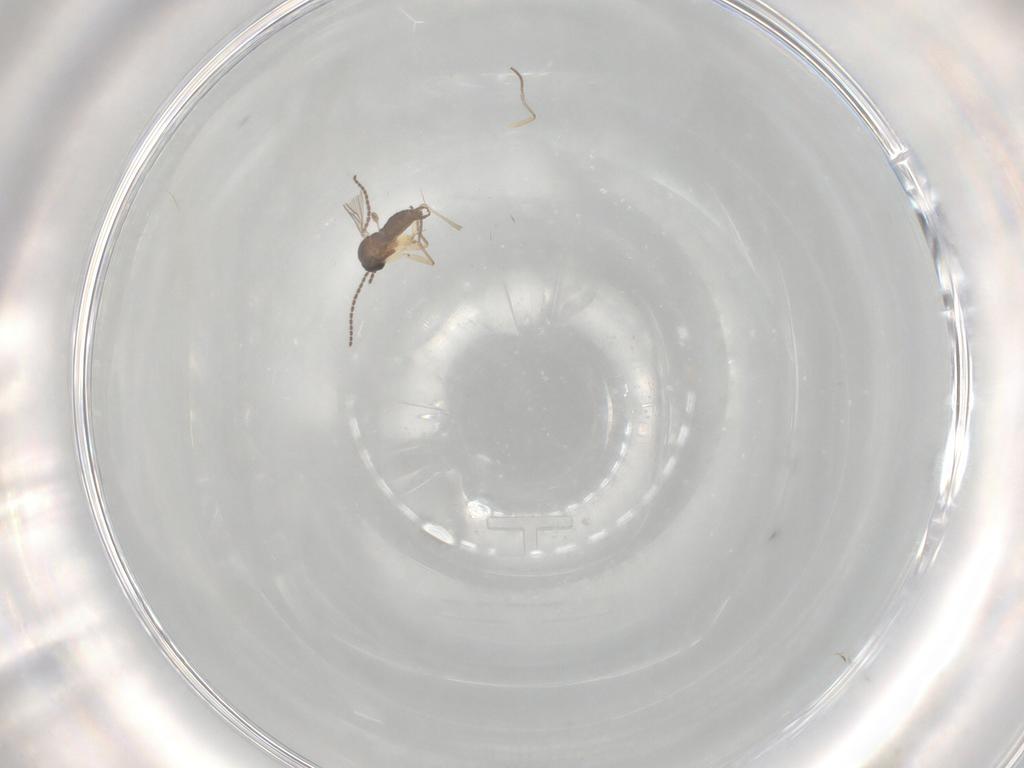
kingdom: Animalia
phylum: Arthropoda
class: Insecta
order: Diptera
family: Sciaridae
